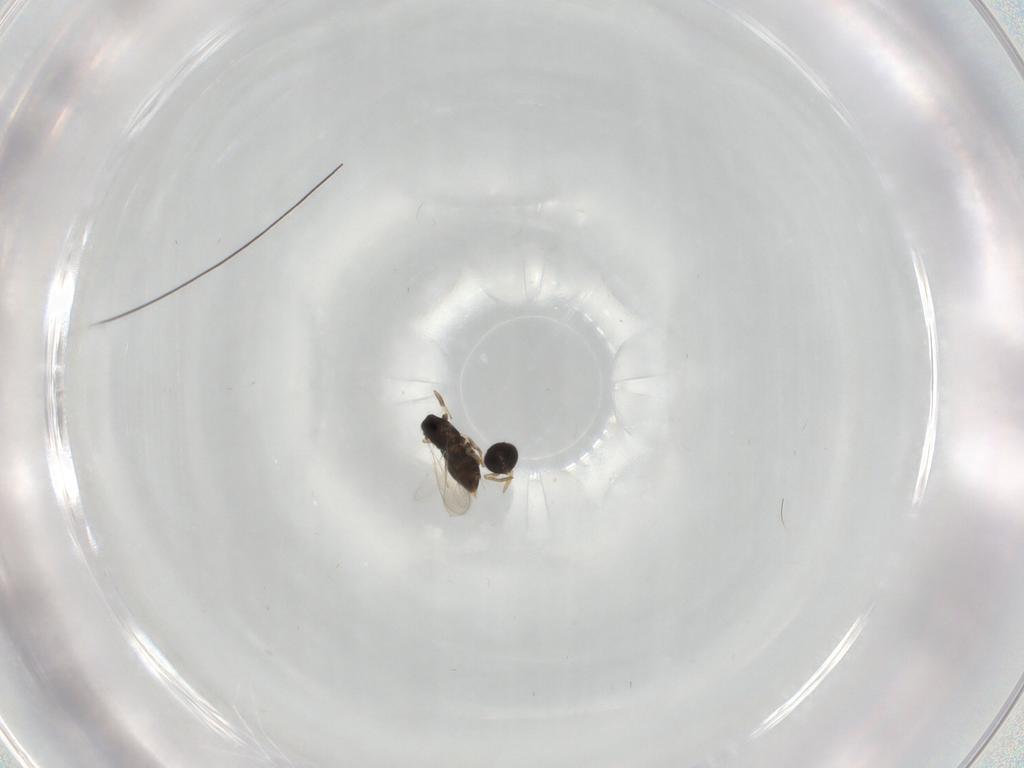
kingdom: Animalia
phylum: Arthropoda
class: Insecta
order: Hymenoptera
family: Aphelinidae
